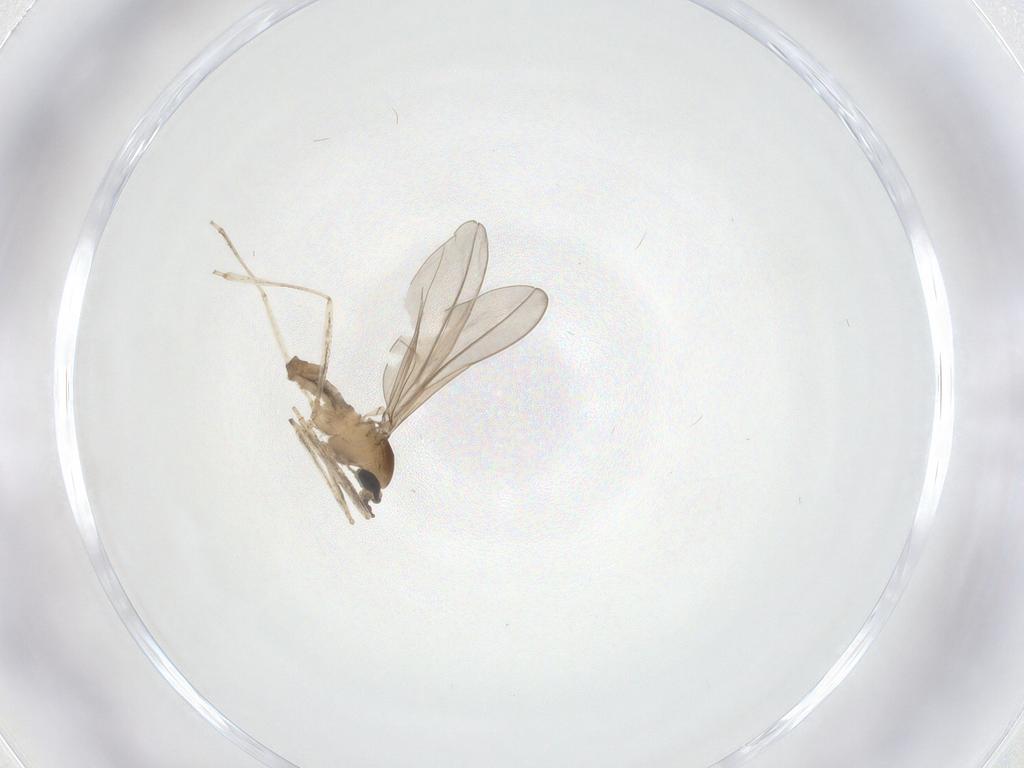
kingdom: Animalia
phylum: Arthropoda
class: Insecta
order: Diptera
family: Cecidomyiidae
